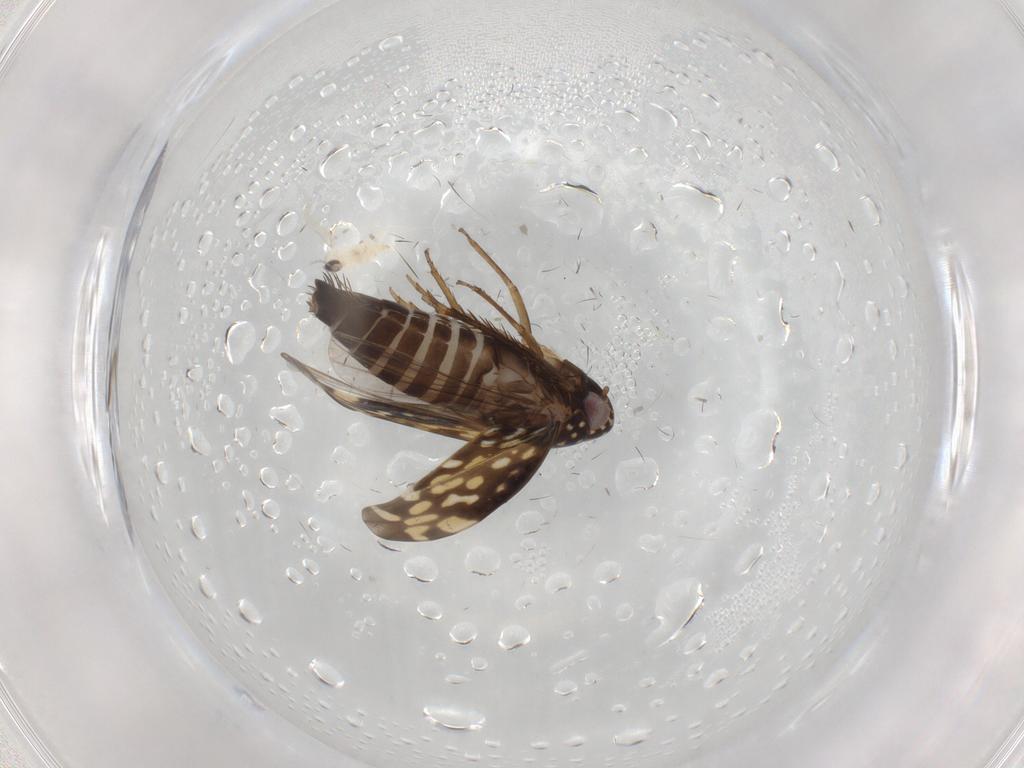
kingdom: Animalia
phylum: Arthropoda
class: Insecta
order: Hemiptera
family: Cicadellidae
